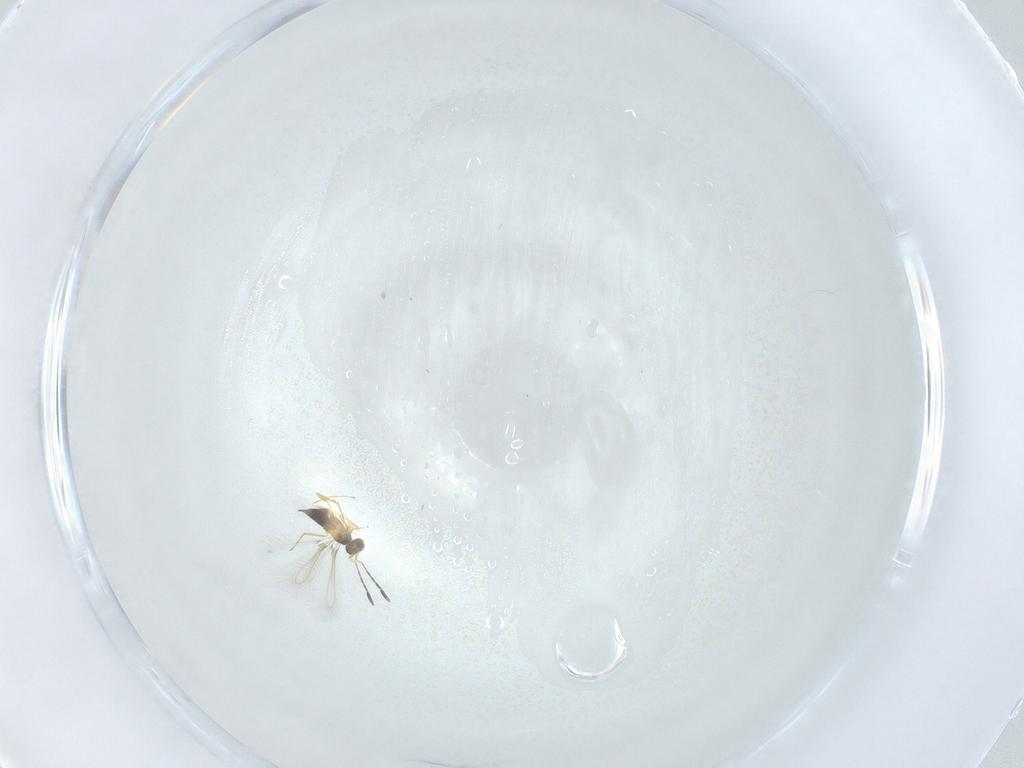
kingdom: Animalia
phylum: Arthropoda
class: Insecta
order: Hymenoptera
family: Mymaridae
